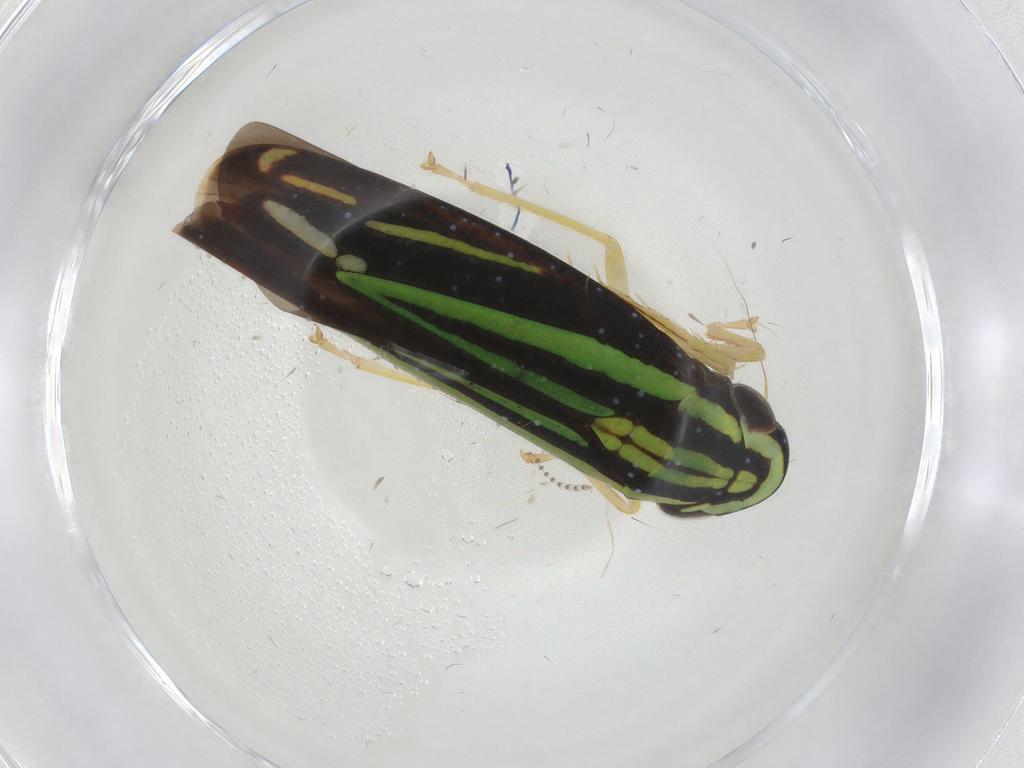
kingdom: Animalia
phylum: Arthropoda
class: Insecta
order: Hemiptera
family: Cicadellidae
